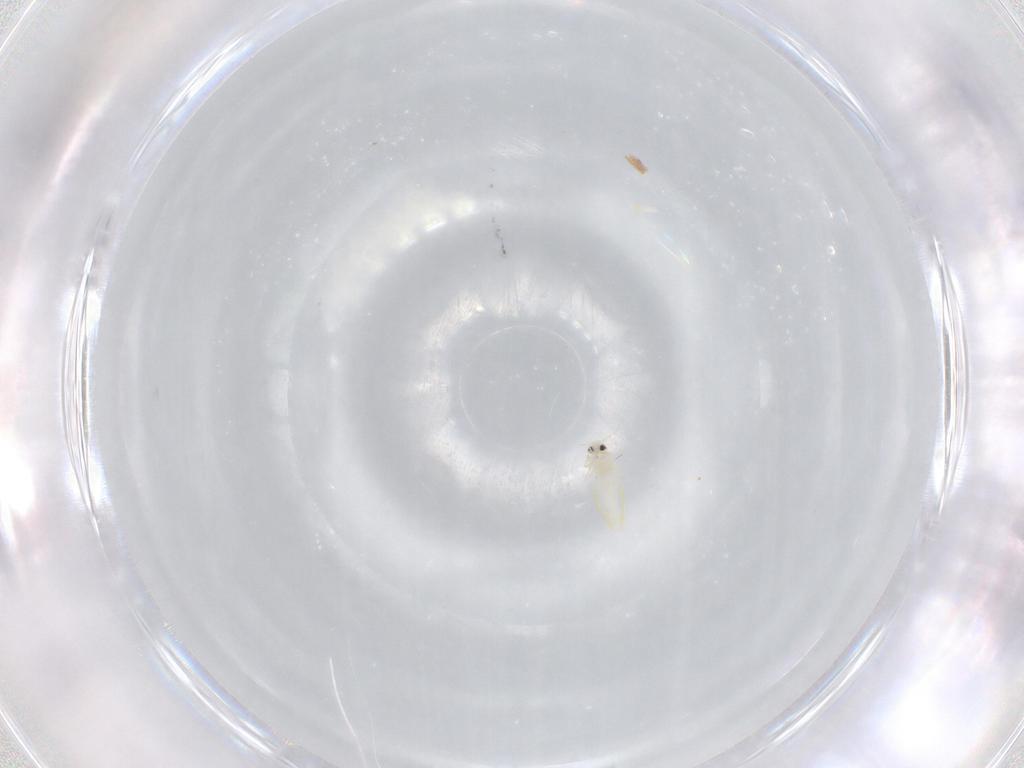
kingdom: Animalia
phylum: Arthropoda
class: Insecta
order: Hemiptera
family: Aleyrodidae
